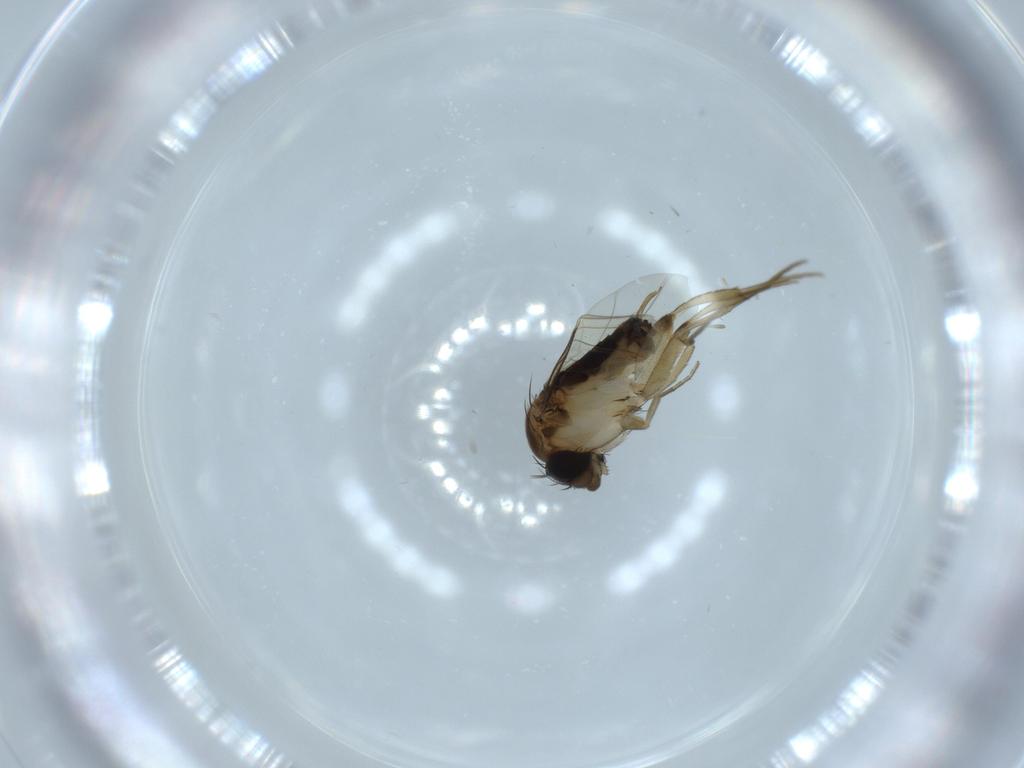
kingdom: Animalia
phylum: Arthropoda
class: Insecta
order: Diptera
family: Phoridae
